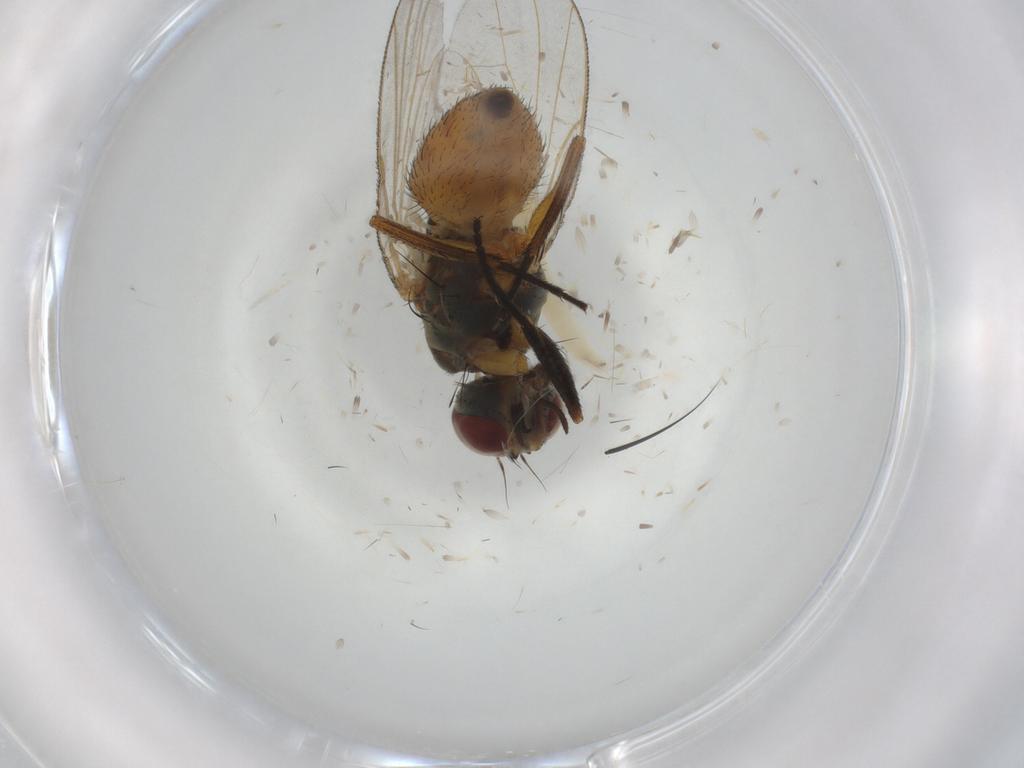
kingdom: Animalia
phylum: Arthropoda
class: Insecta
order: Diptera
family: Muscidae
